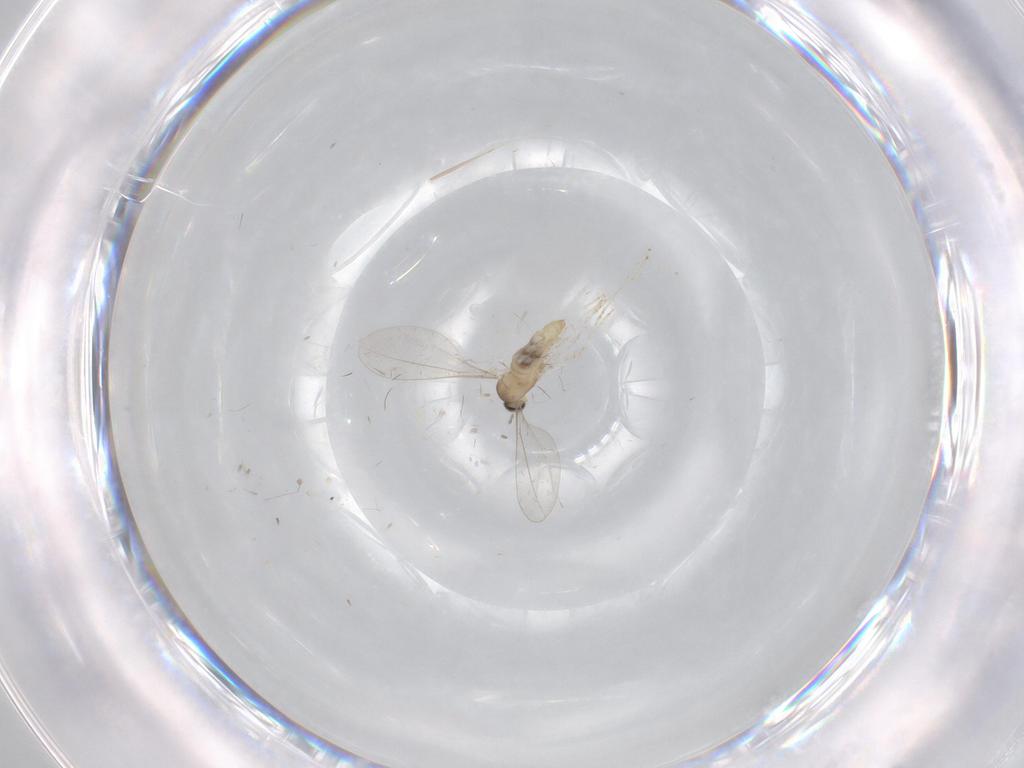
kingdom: Animalia
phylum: Arthropoda
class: Insecta
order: Diptera
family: Cecidomyiidae
